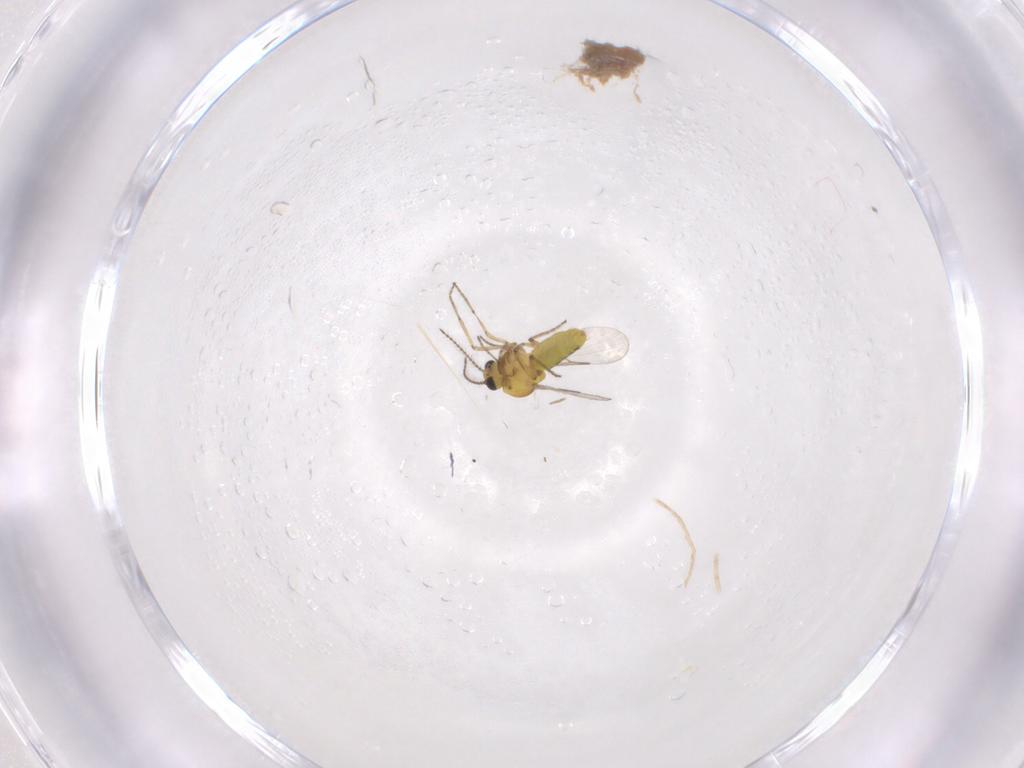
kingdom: Animalia
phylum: Arthropoda
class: Insecta
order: Diptera
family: Ceratopogonidae
